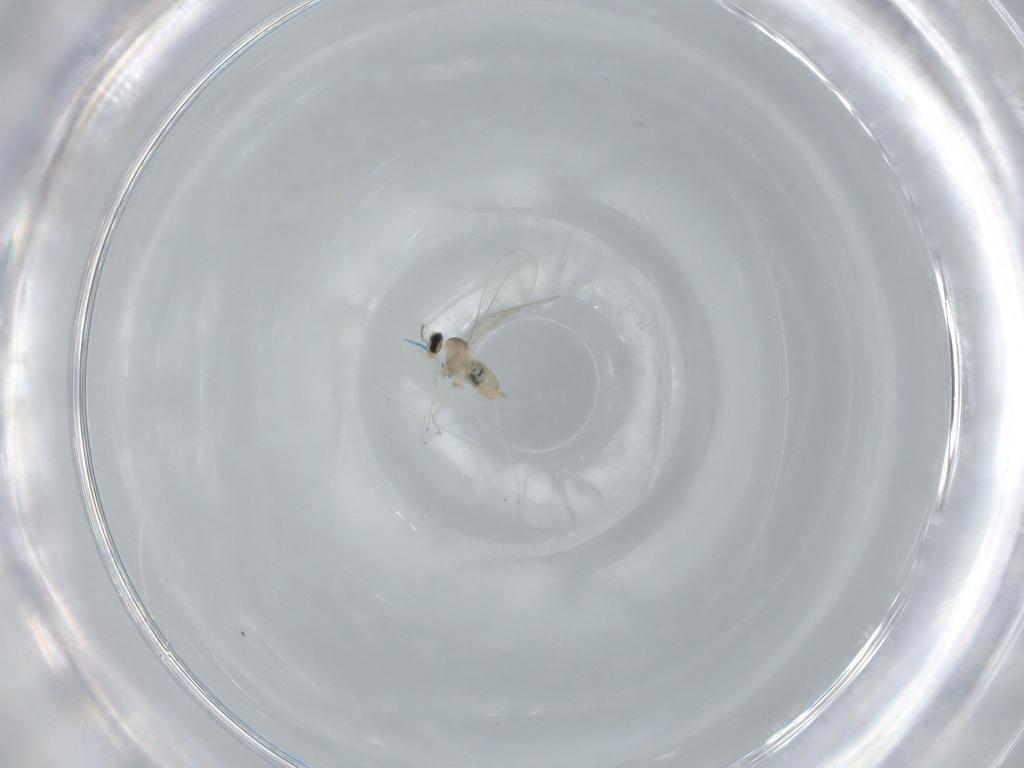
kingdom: Animalia
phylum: Arthropoda
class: Insecta
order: Diptera
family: Cecidomyiidae
